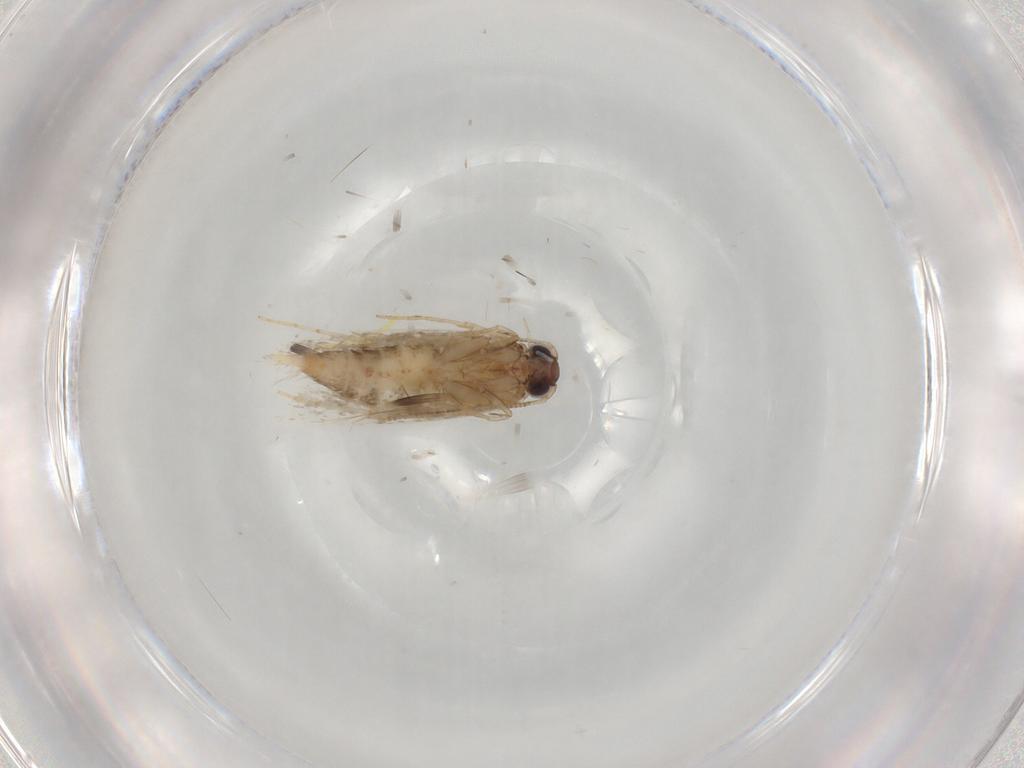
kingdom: Animalia
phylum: Arthropoda
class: Insecta
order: Lepidoptera
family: Tineidae
